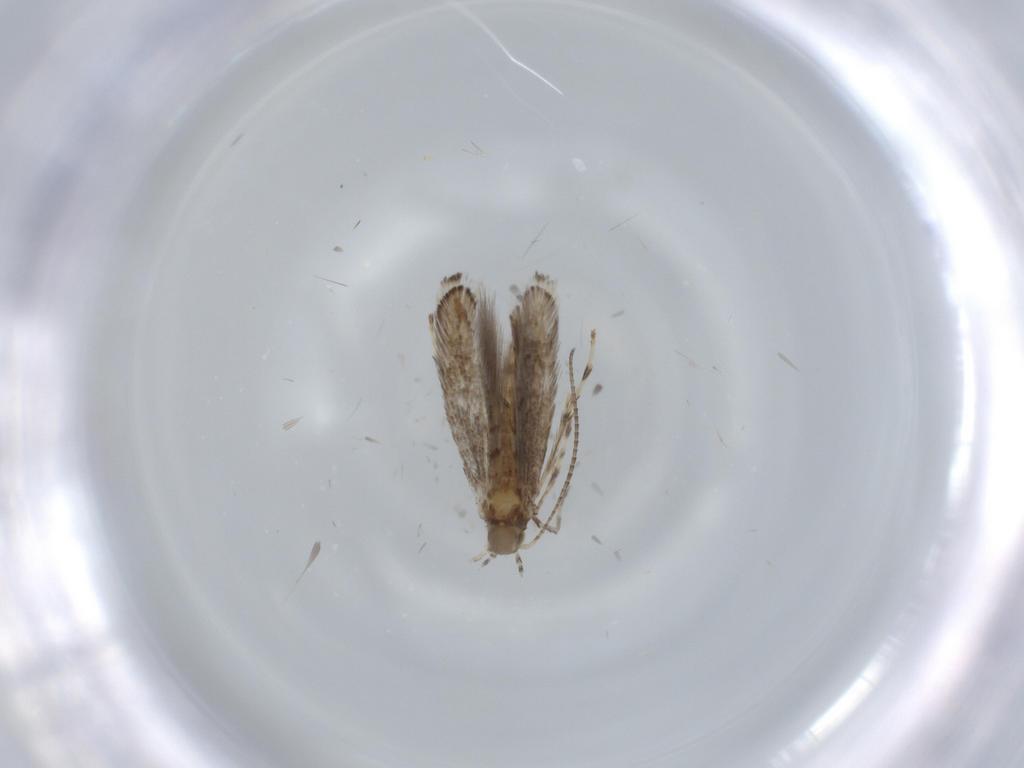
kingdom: Animalia
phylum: Arthropoda
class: Insecta
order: Lepidoptera
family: Gracillariidae
